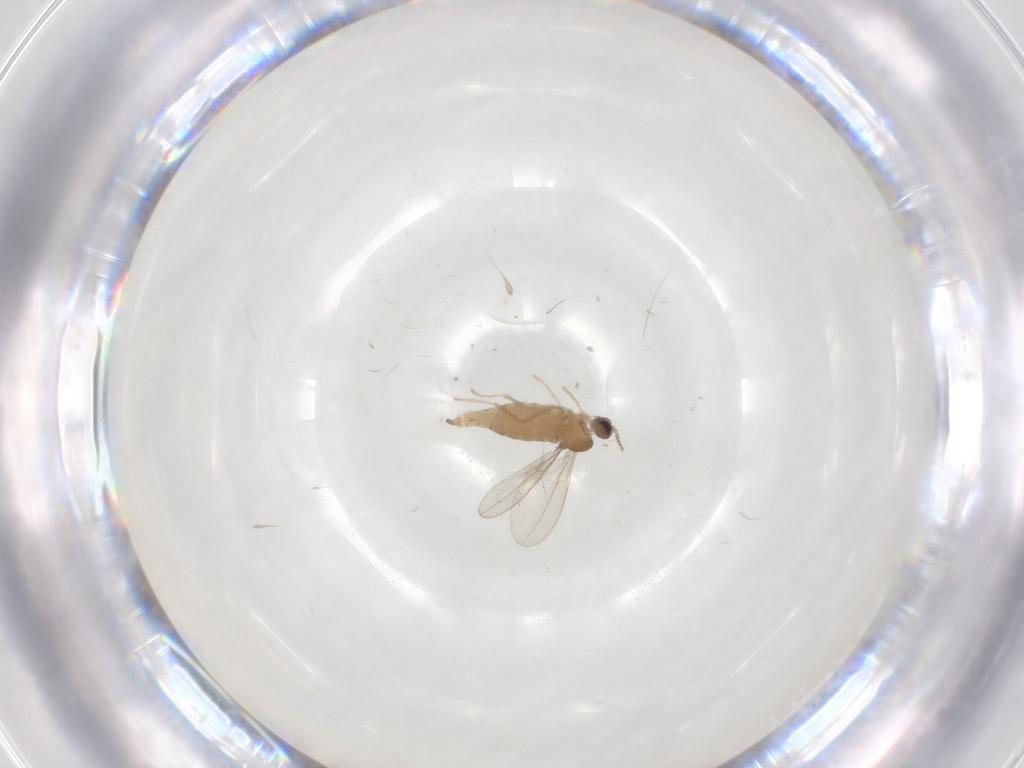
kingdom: Animalia
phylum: Arthropoda
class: Insecta
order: Diptera
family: Cecidomyiidae
